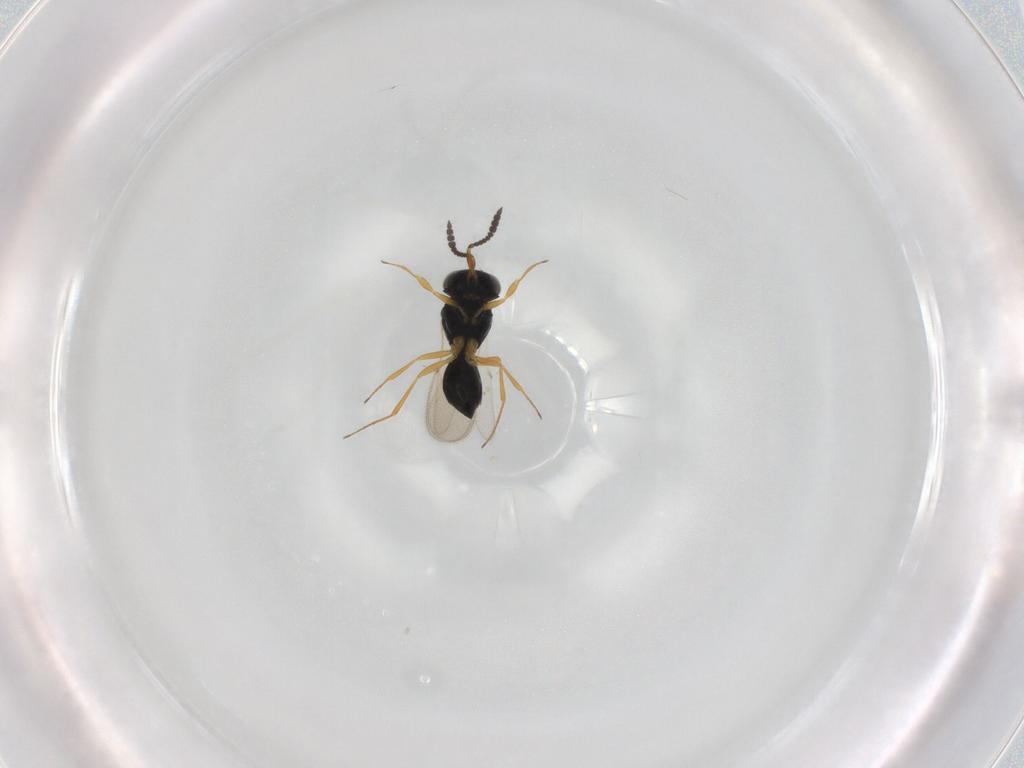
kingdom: Animalia
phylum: Arthropoda
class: Insecta
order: Hymenoptera
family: Scelionidae
